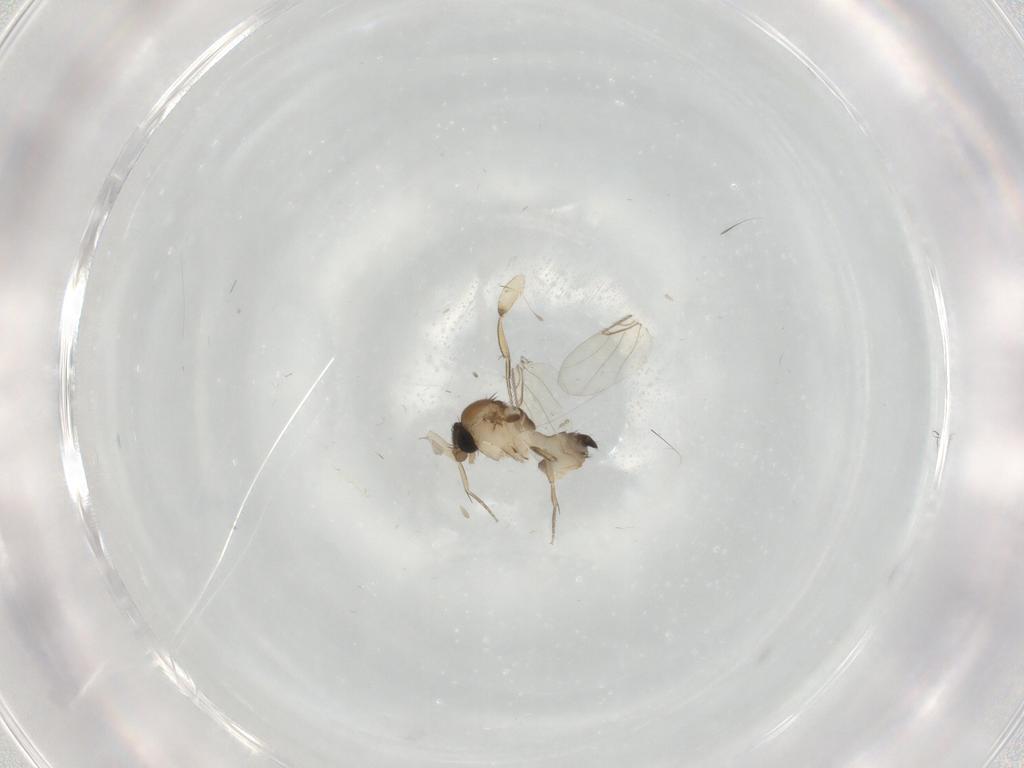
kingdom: Animalia
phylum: Arthropoda
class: Insecta
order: Diptera
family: Phoridae
